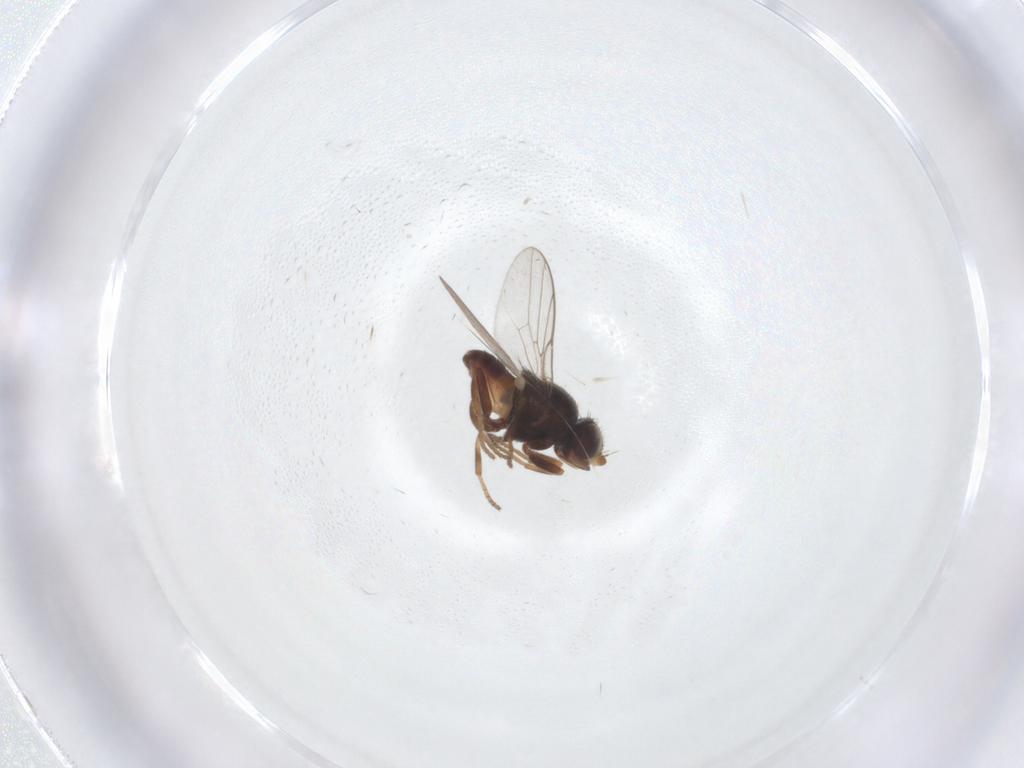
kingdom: Animalia
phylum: Arthropoda
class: Insecta
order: Diptera
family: Chloropidae
